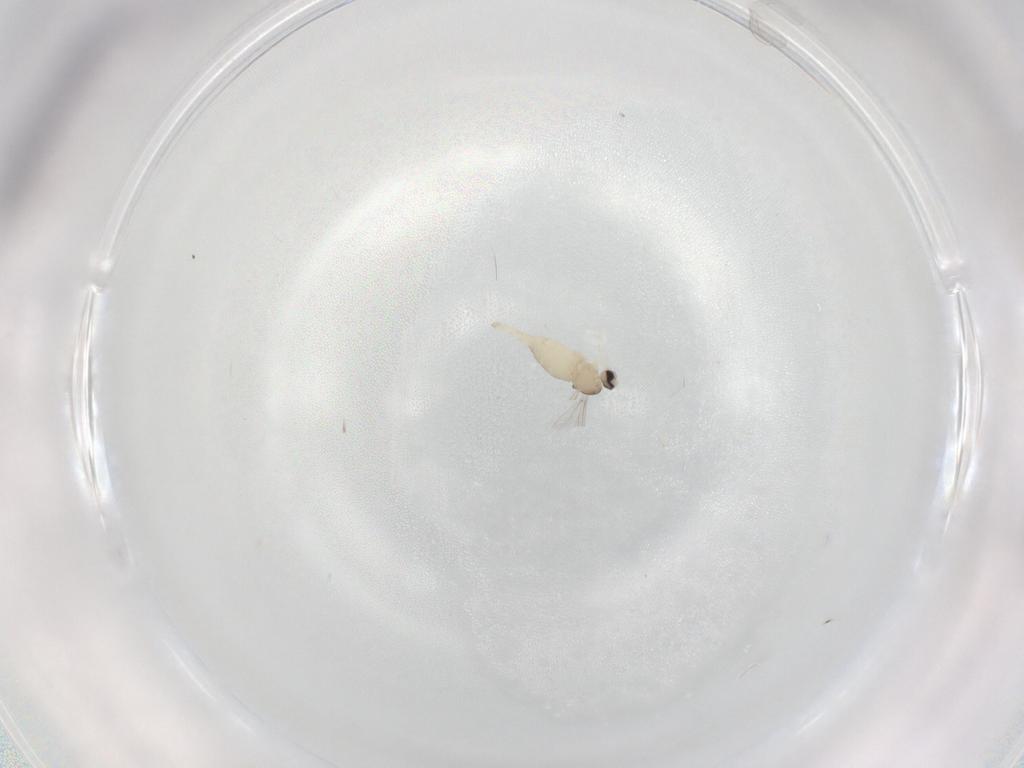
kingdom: Animalia
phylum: Arthropoda
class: Insecta
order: Diptera
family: Cecidomyiidae
